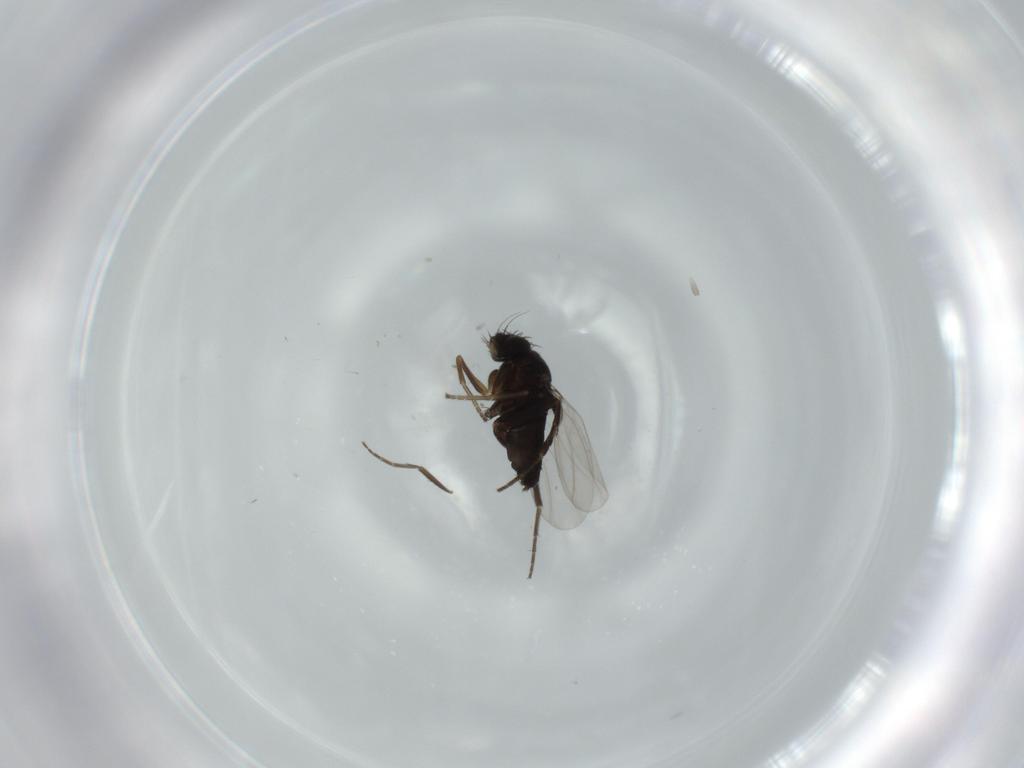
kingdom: Animalia
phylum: Arthropoda
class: Insecta
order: Diptera
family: Phoridae
